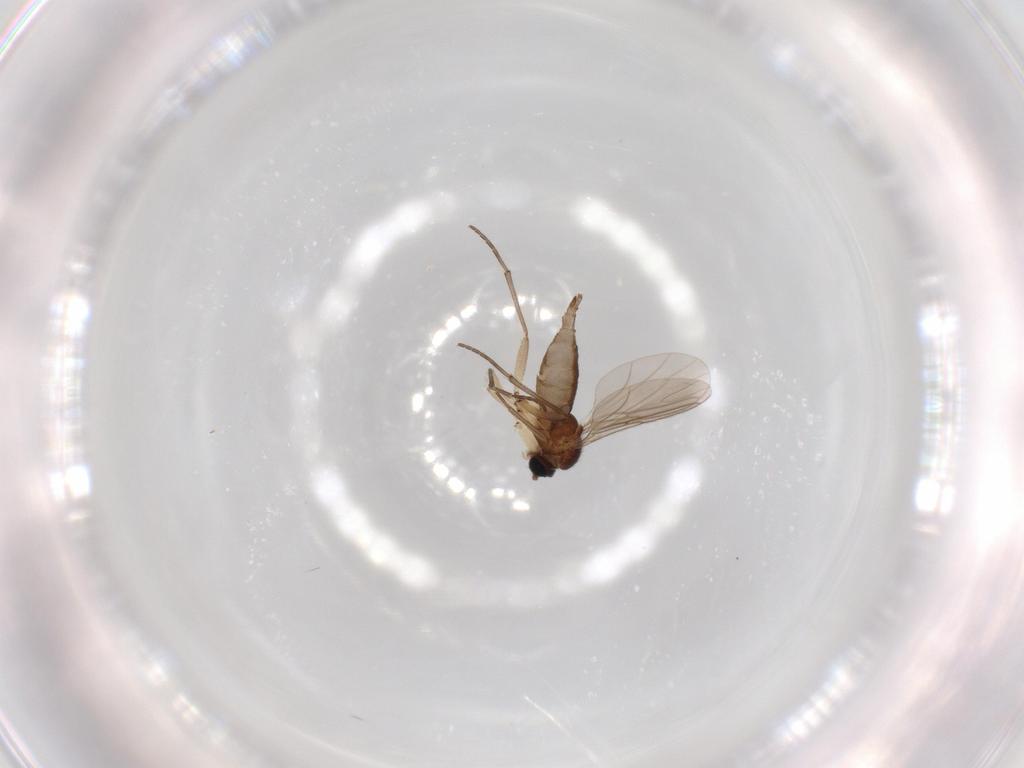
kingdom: Animalia
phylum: Arthropoda
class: Insecta
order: Diptera
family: Sciaridae
